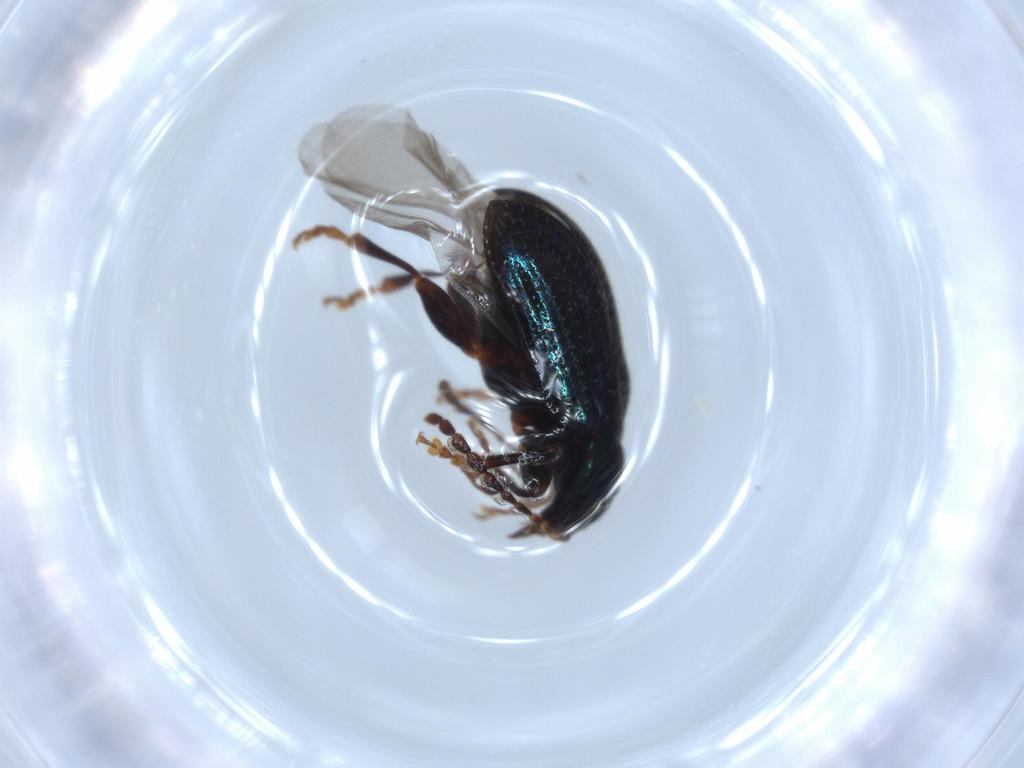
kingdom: Animalia
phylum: Arthropoda
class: Insecta
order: Coleoptera
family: Chrysomelidae
